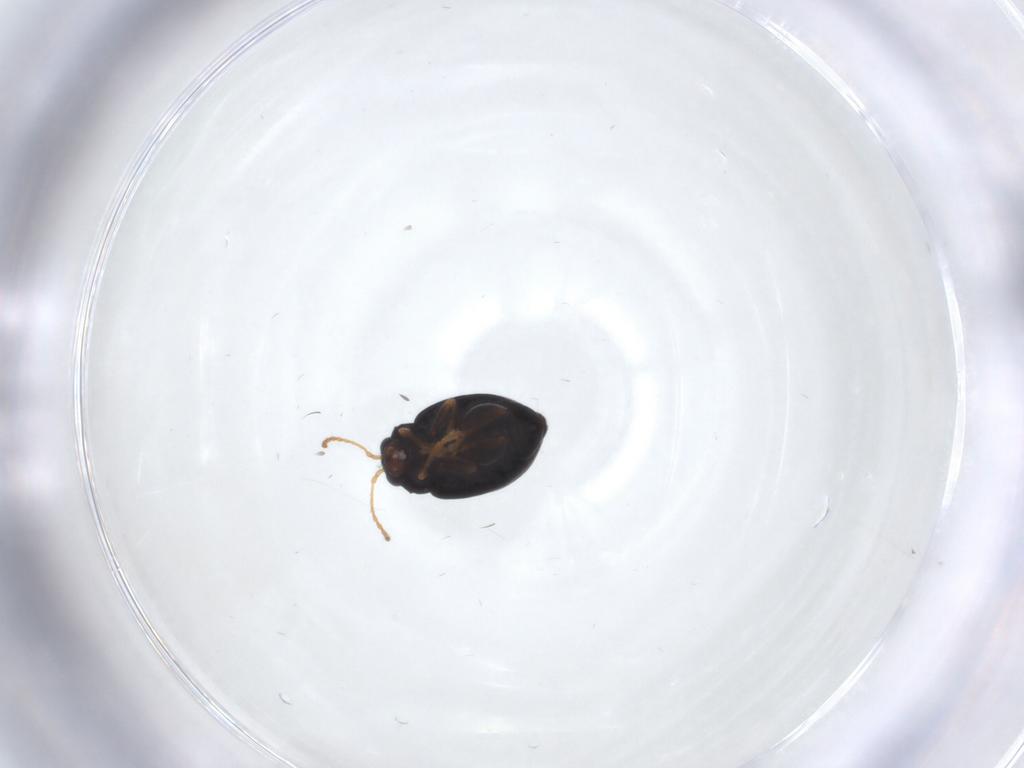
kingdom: Animalia
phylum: Arthropoda
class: Insecta
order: Coleoptera
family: Chrysomelidae
